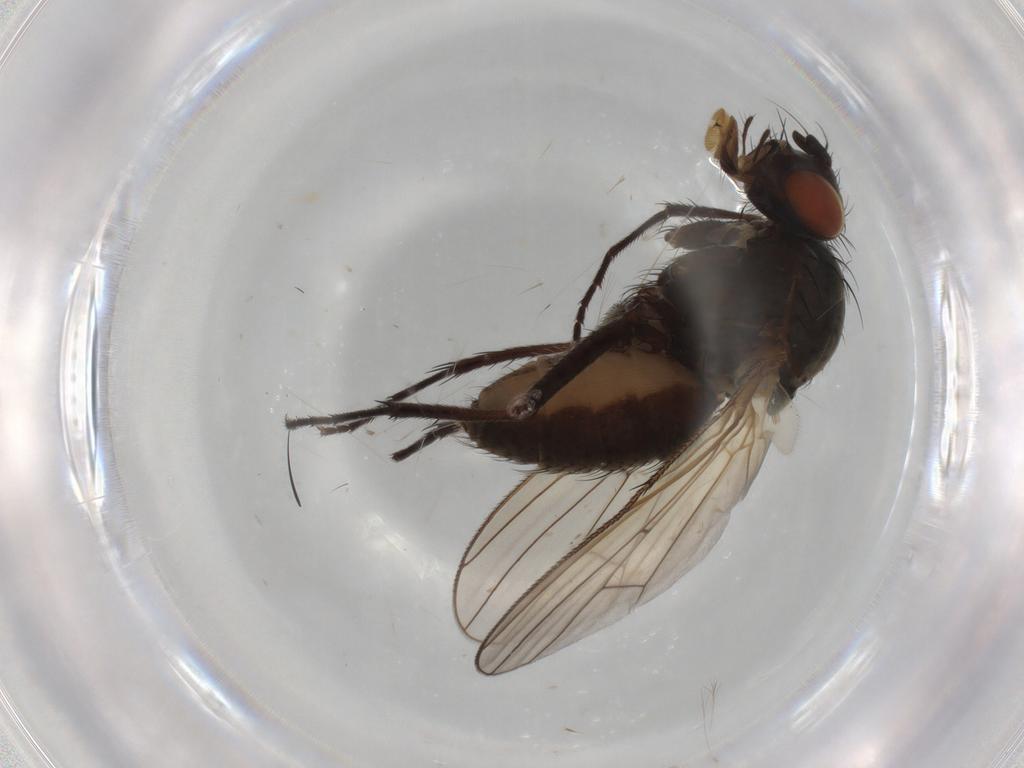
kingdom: Animalia
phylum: Arthropoda
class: Insecta
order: Diptera
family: Anthomyiidae
